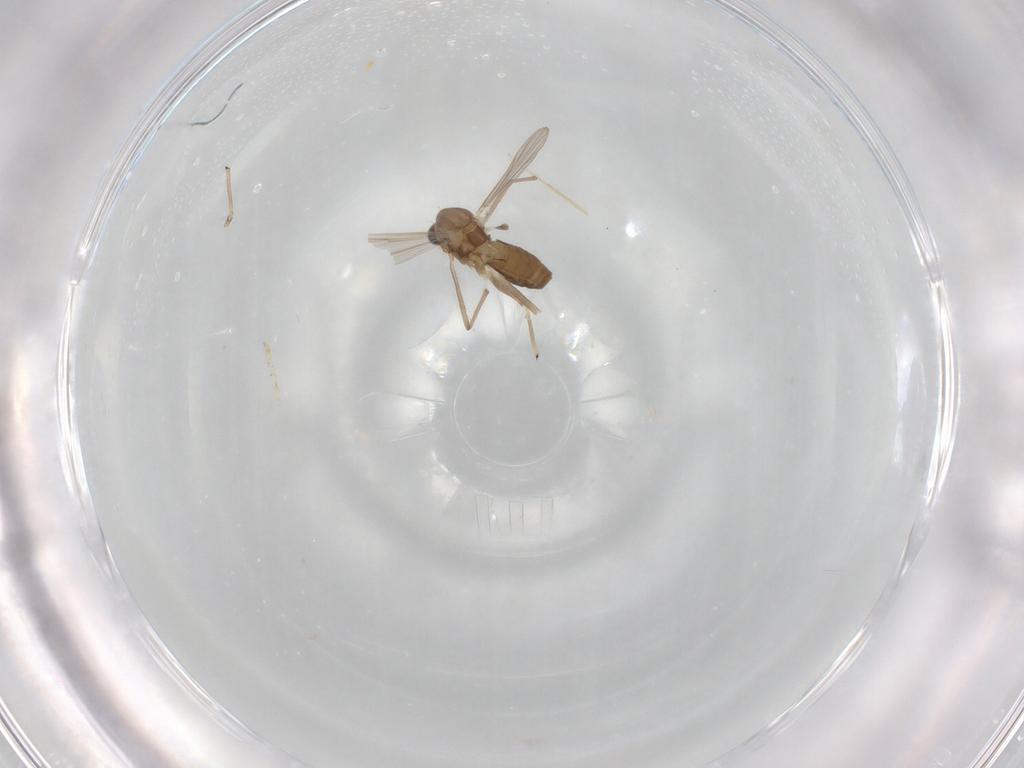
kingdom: Animalia
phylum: Arthropoda
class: Insecta
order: Diptera
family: Chironomidae
